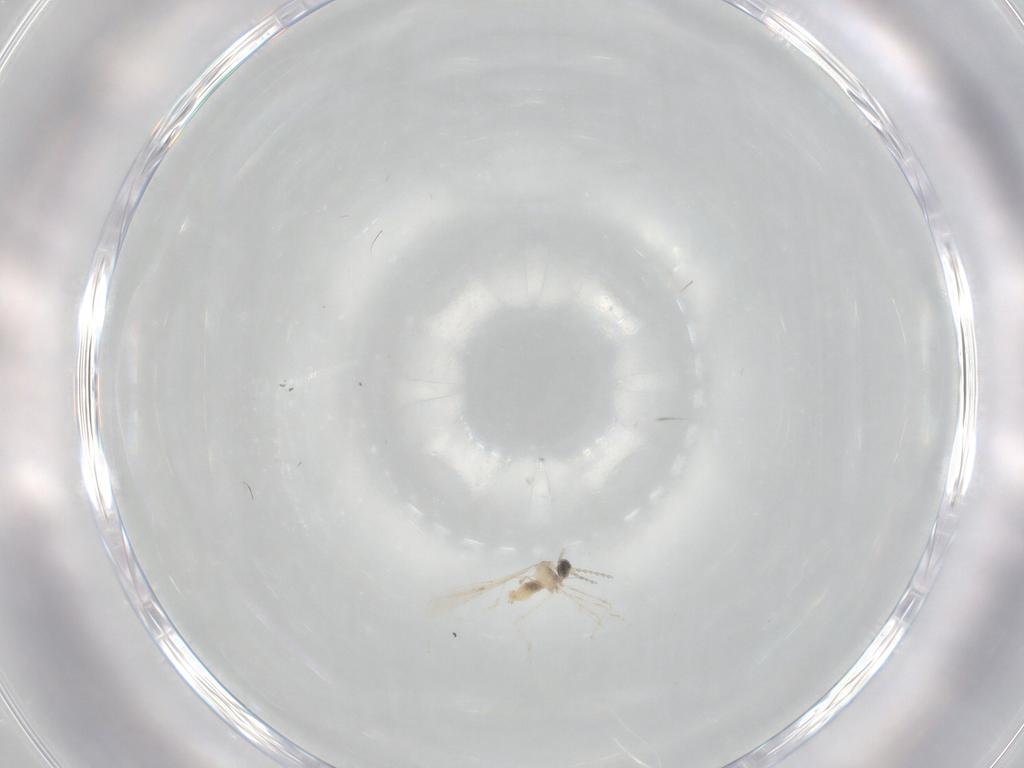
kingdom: Animalia
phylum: Arthropoda
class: Insecta
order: Diptera
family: Cecidomyiidae
